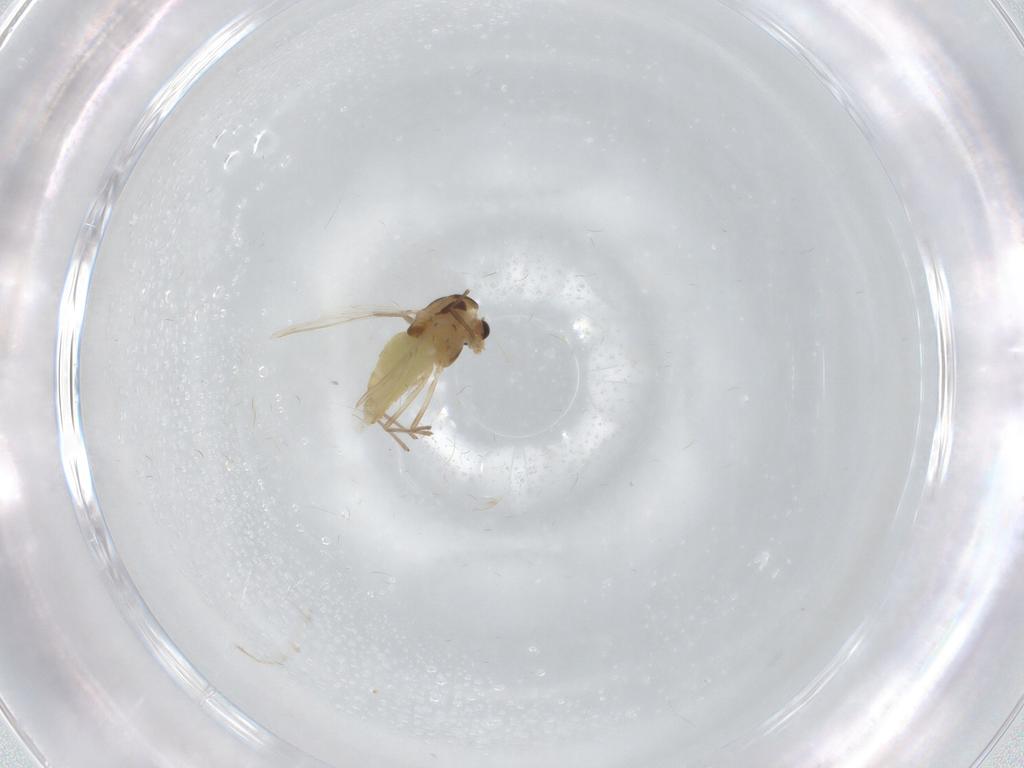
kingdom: Animalia
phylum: Arthropoda
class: Insecta
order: Diptera
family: Chironomidae
